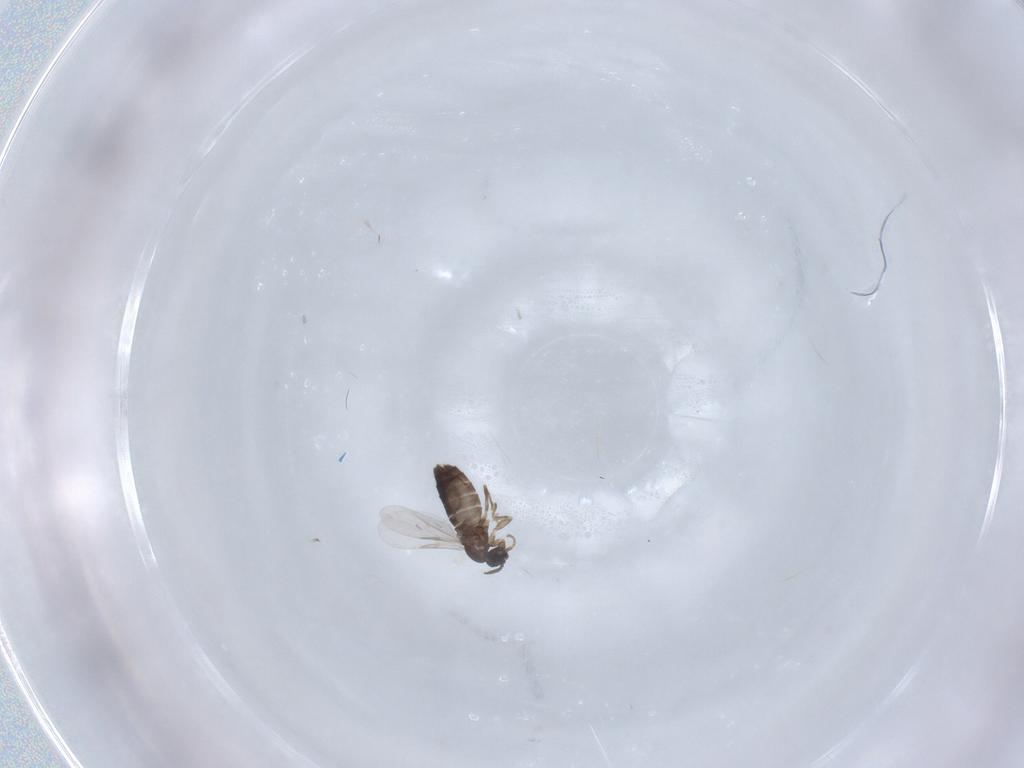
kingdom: Animalia
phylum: Arthropoda
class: Insecta
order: Diptera
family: Scatopsidae
